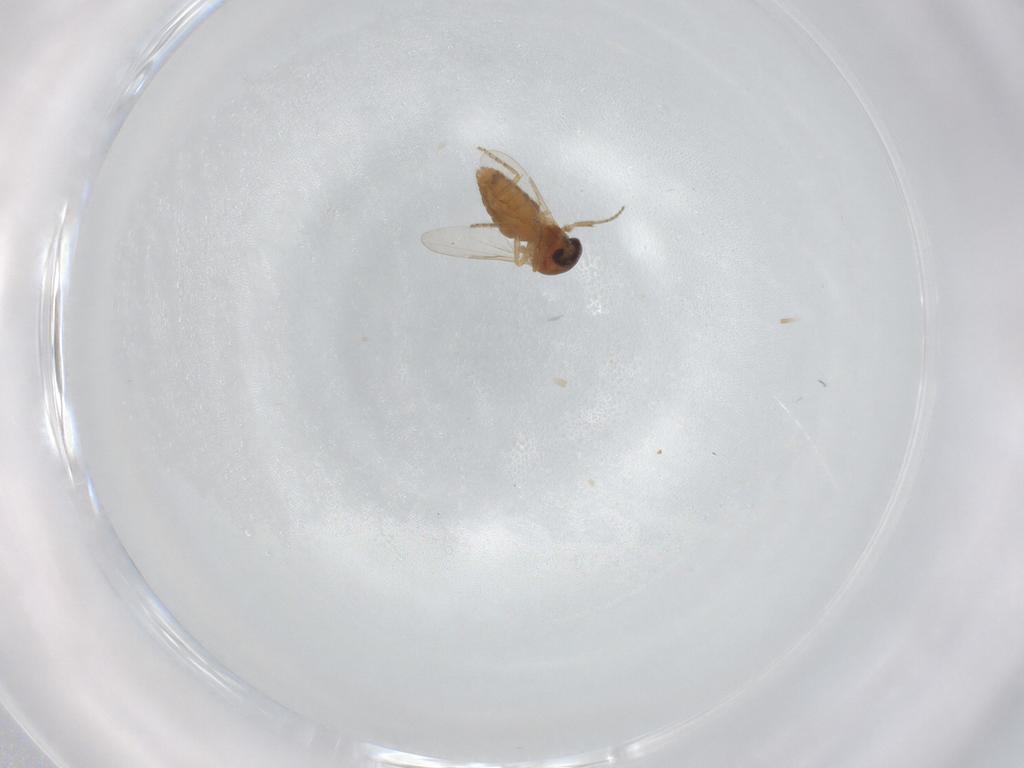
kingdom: Animalia
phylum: Arthropoda
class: Insecta
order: Diptera
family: Ceratopogonidae
